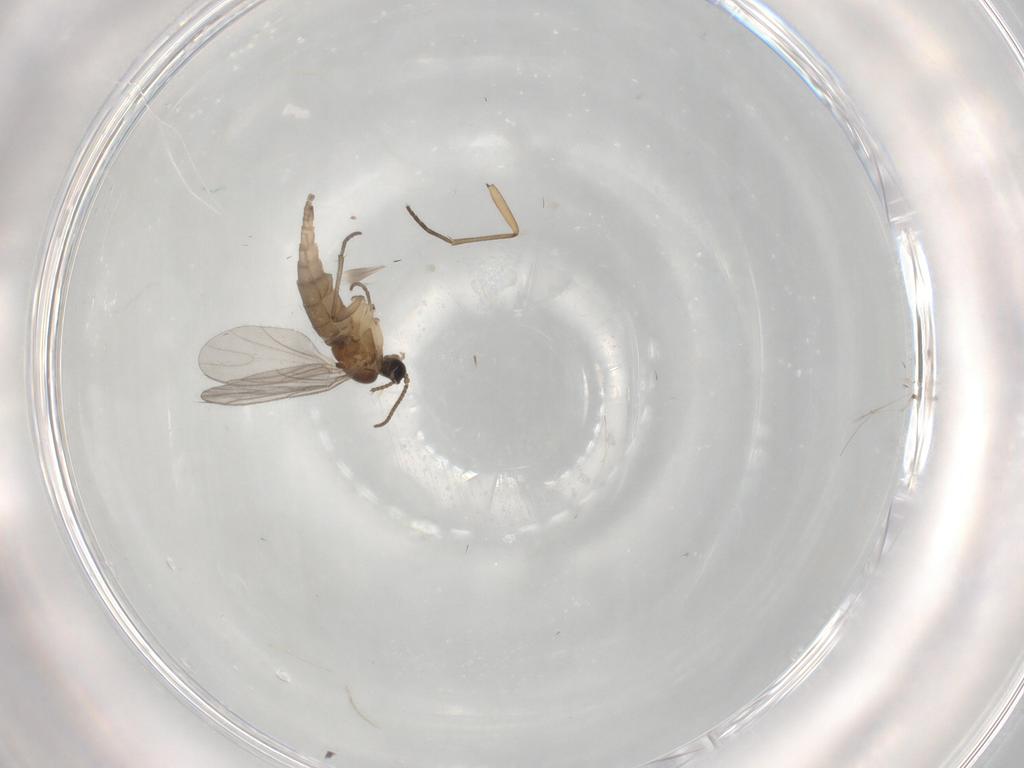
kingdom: Animalia
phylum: Arthropoda
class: Insecta
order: Diptera
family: Sciaridae
